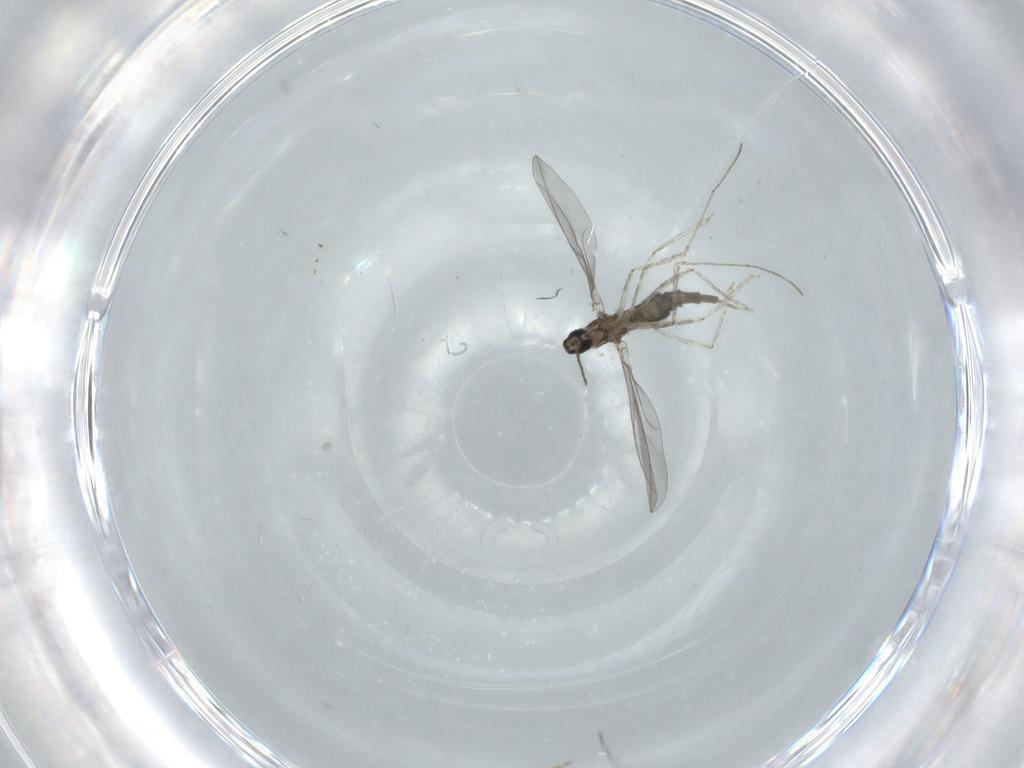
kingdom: Animalia
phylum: Arthropoda
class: Insecta
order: Diptera
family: Cecidomyiidae
